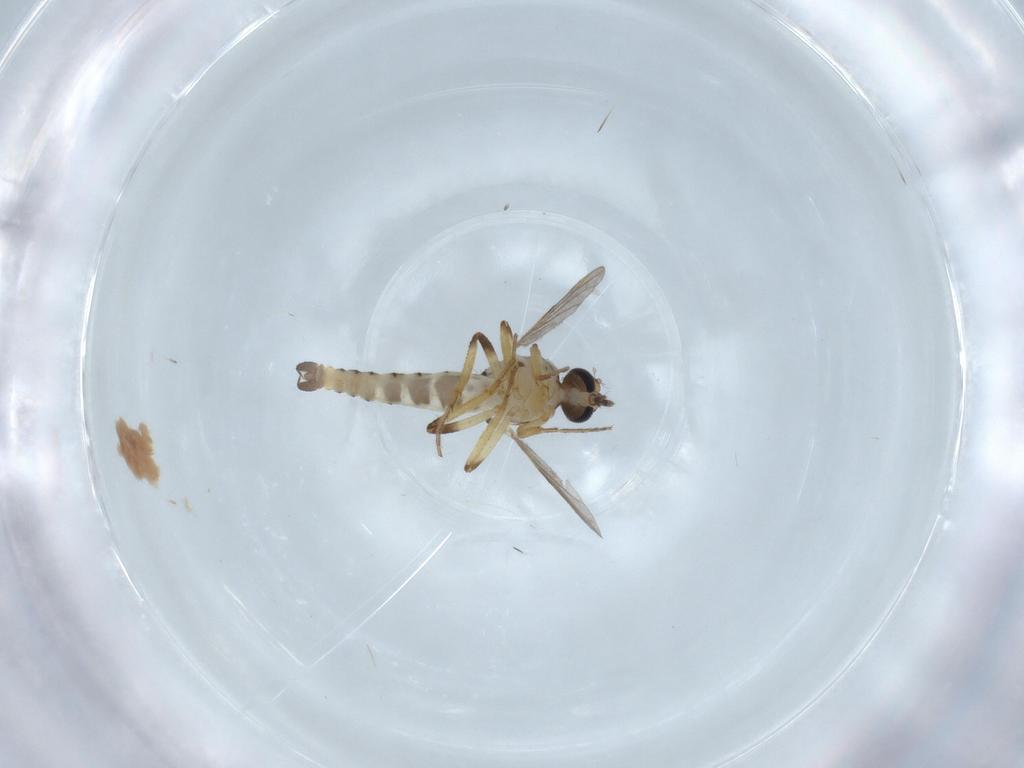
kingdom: Animalia
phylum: Arthropoda
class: Insecta
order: Diptera
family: Ceratopogonidae
